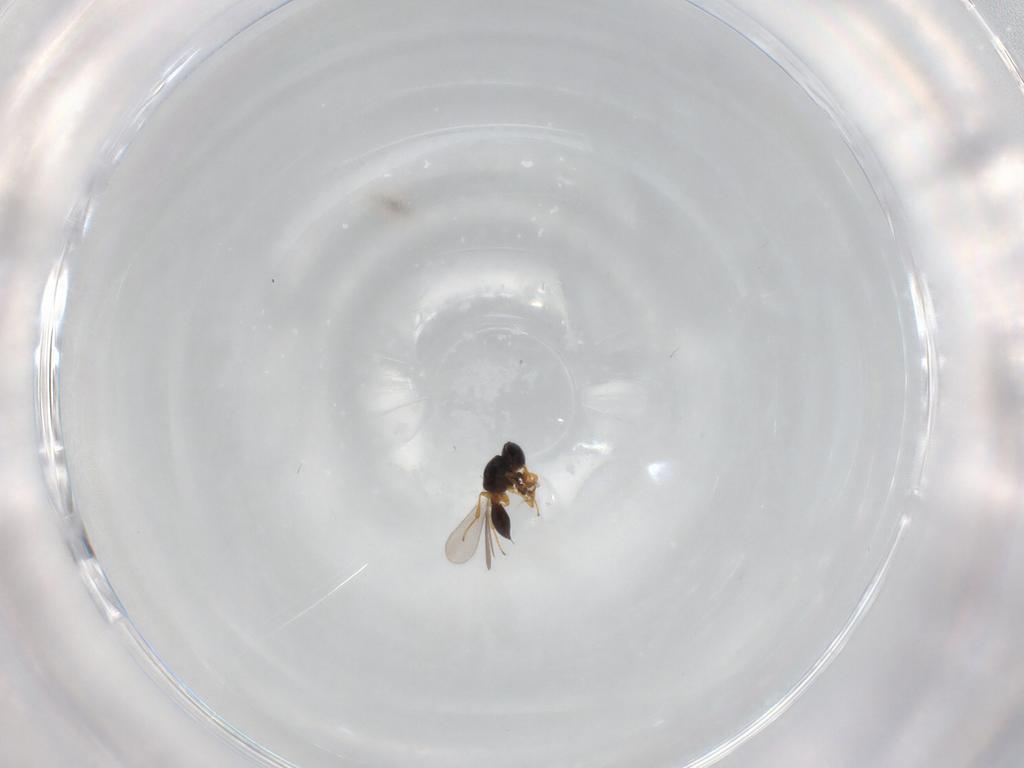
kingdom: Animalia
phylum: Arthropoda
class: Insecta
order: Hymenoptera
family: Platygastridae
